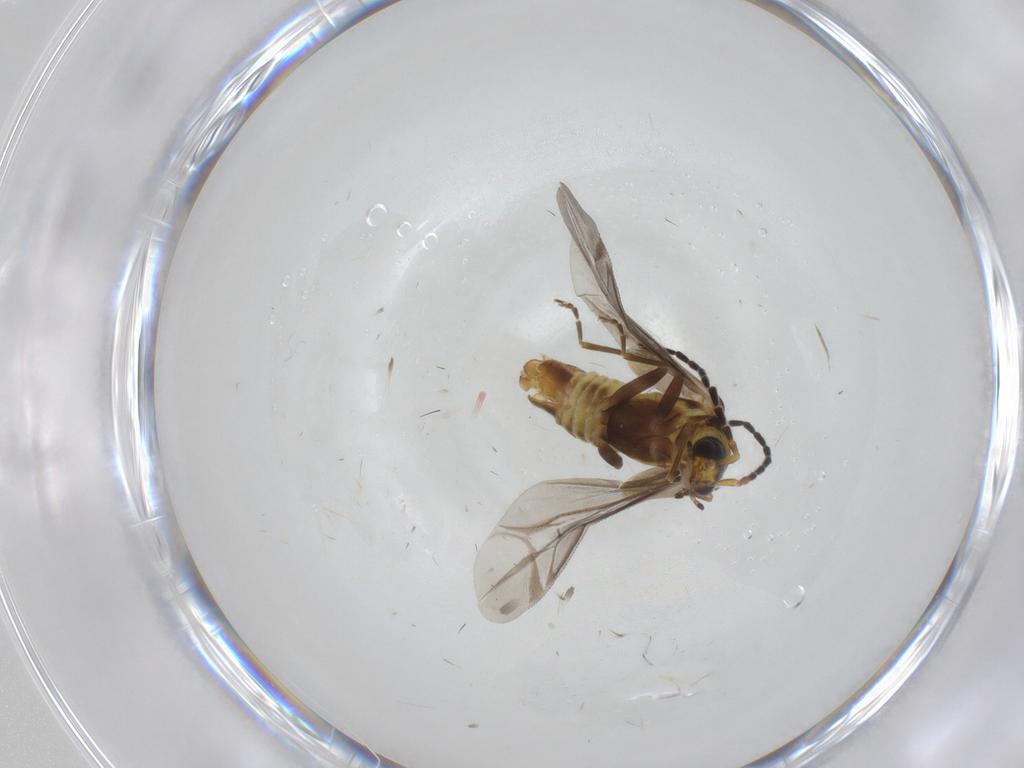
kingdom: Animalia
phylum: Arthropoda
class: Insecta
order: Coleoptera
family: Cantharidae
